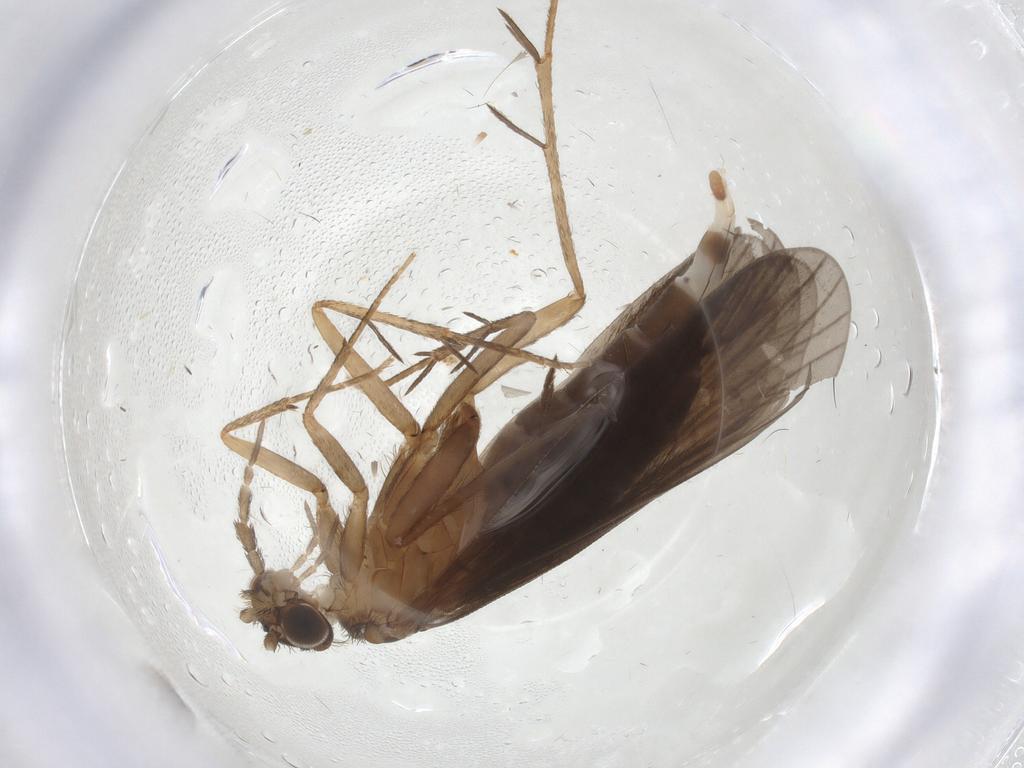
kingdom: Animalia
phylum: Arthropoda
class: Insecta
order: Trichoptera
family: Philopotamidae
